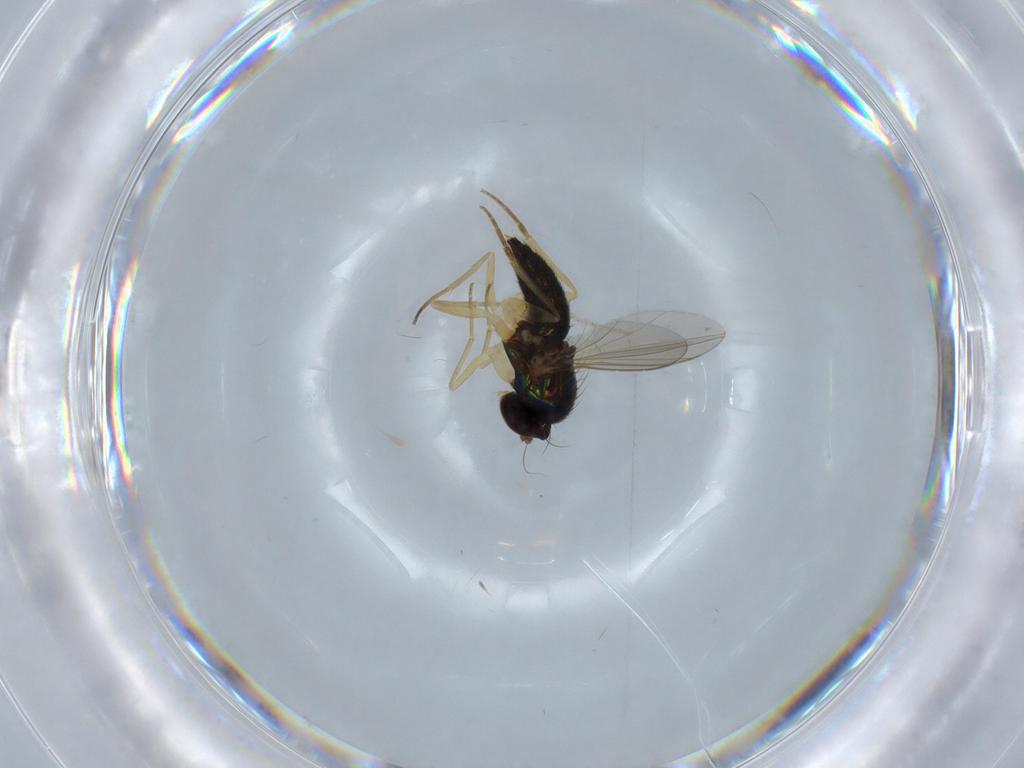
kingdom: Animalia
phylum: Arthropoda
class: Insecta
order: Diptera
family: Dolichopodidae
